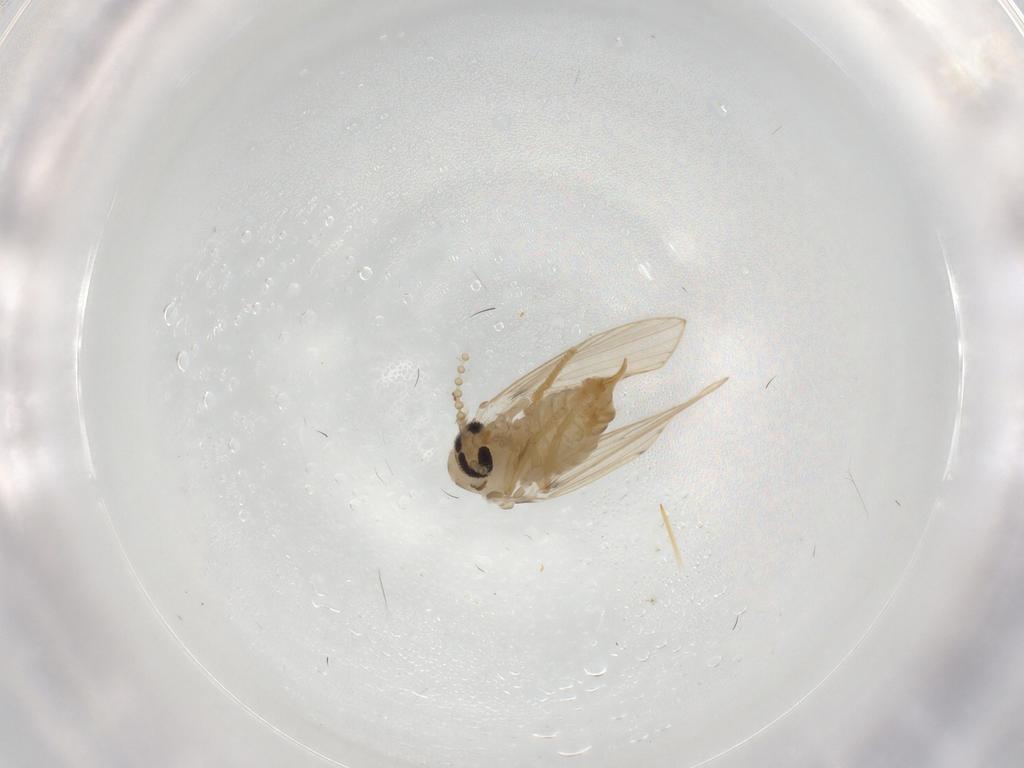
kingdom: Animalia
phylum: Arthropoda
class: Insecta
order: Diptera
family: Psychodidae
